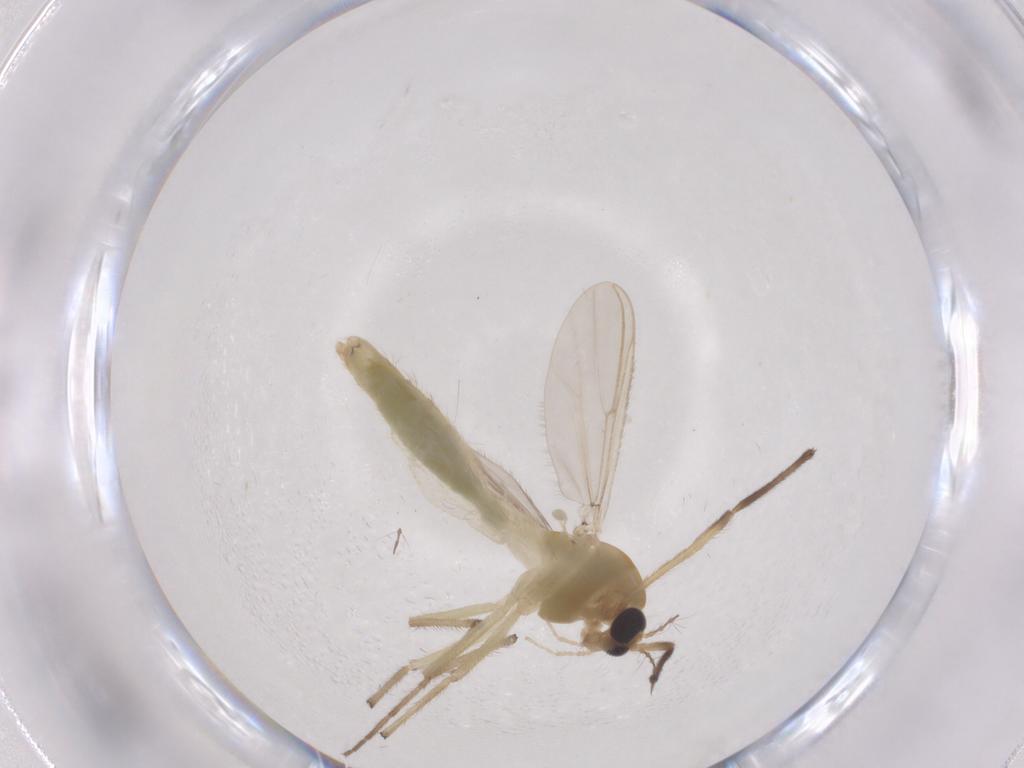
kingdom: Animalia
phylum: Arthropoda
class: Insecta
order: Diptera
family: Chironomidae
